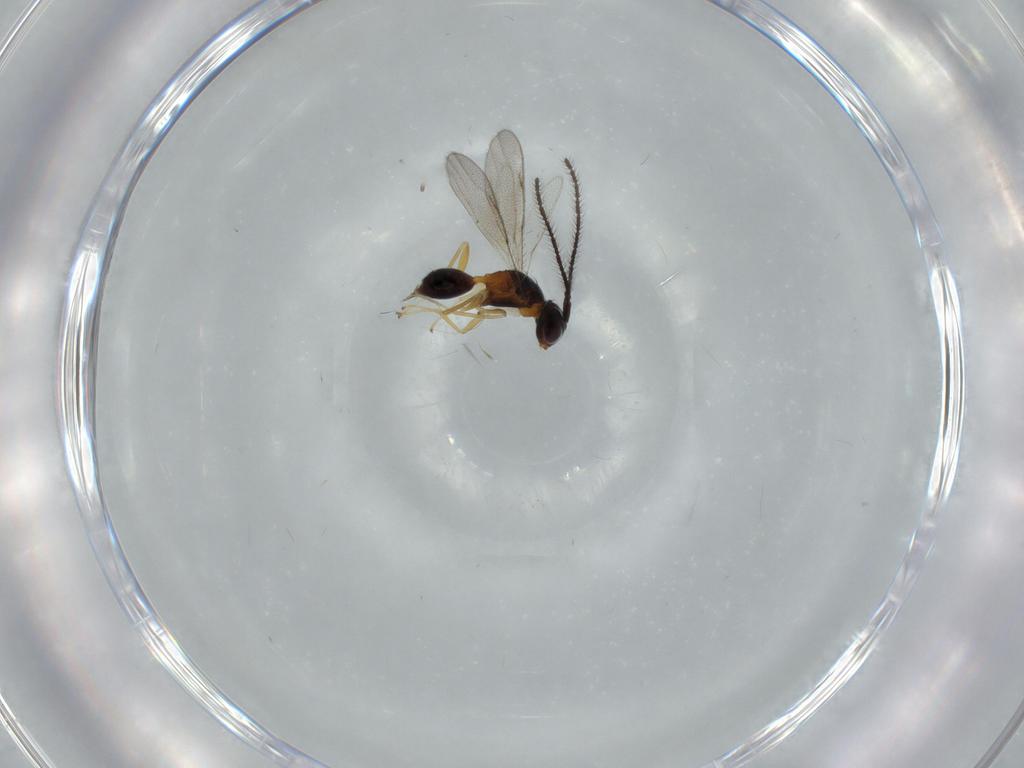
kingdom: Animalia
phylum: Arthropoda
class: Insecta
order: Hymenoptera
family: Diparidae
